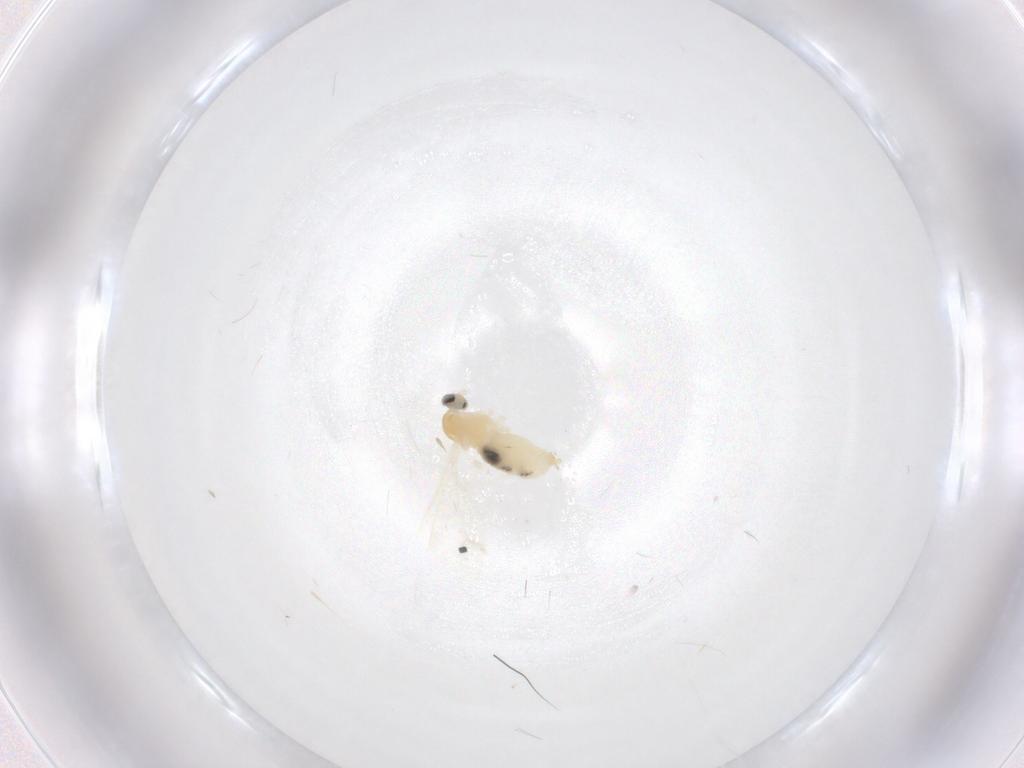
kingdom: Animalia
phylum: Arthropoda
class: Insecta
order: Diptera
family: Cecidomyiidae
